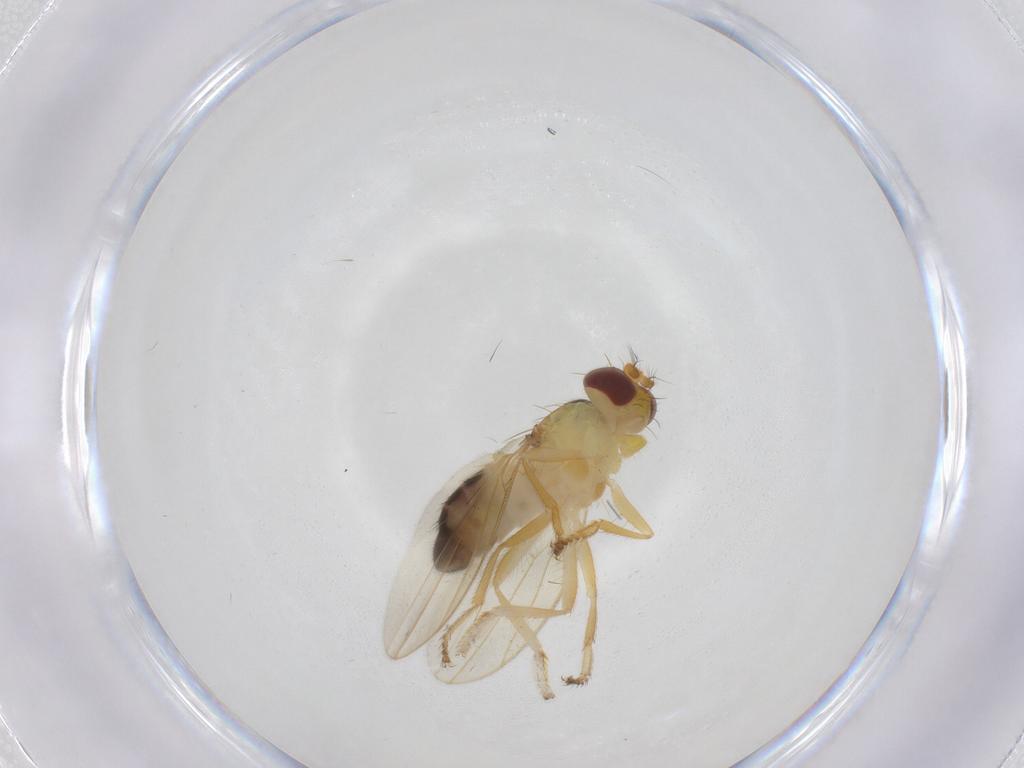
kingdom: Animalia
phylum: Arthropoda
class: Insecta
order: Diptera
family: Periscelididae
